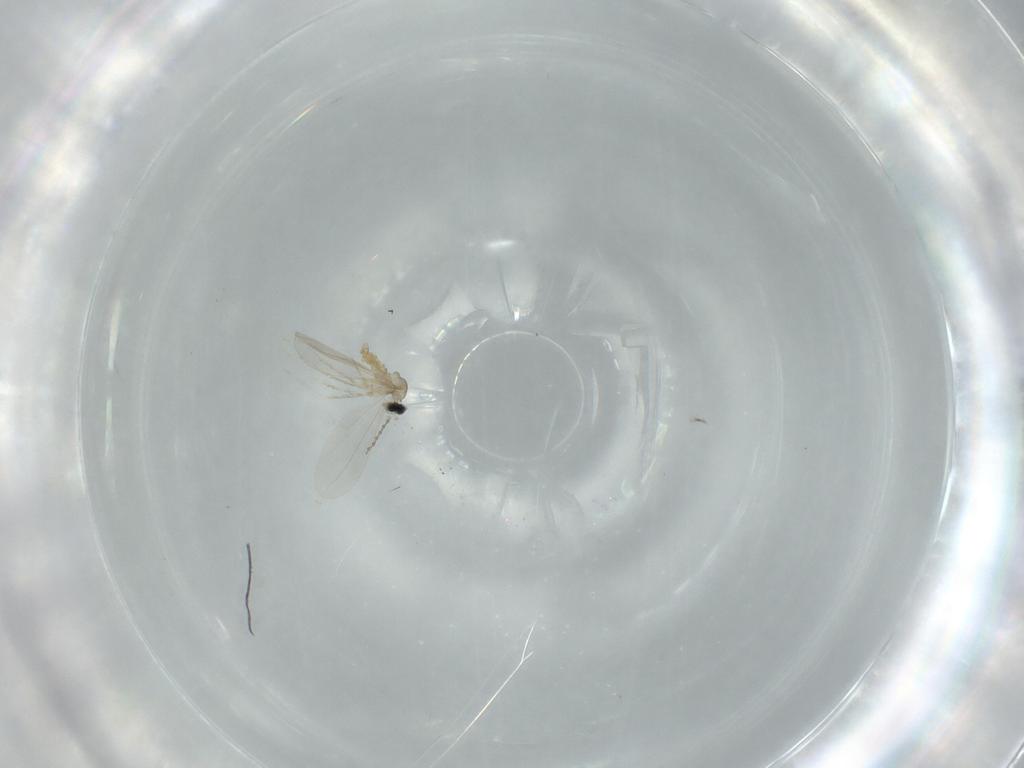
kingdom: Animalia
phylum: Arthropoda
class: Insecta
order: Diptera
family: Cecidomyiidae
